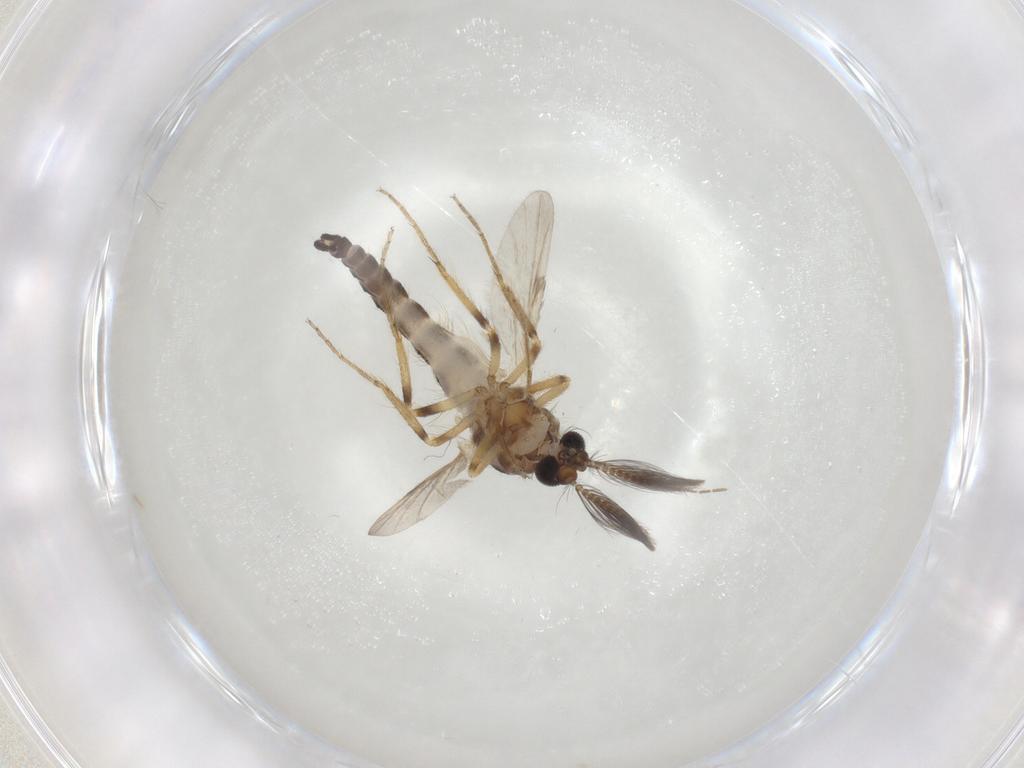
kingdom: Animalia
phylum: Arthropoda
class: Insecta
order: Diptera
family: Ceratopogonidae
